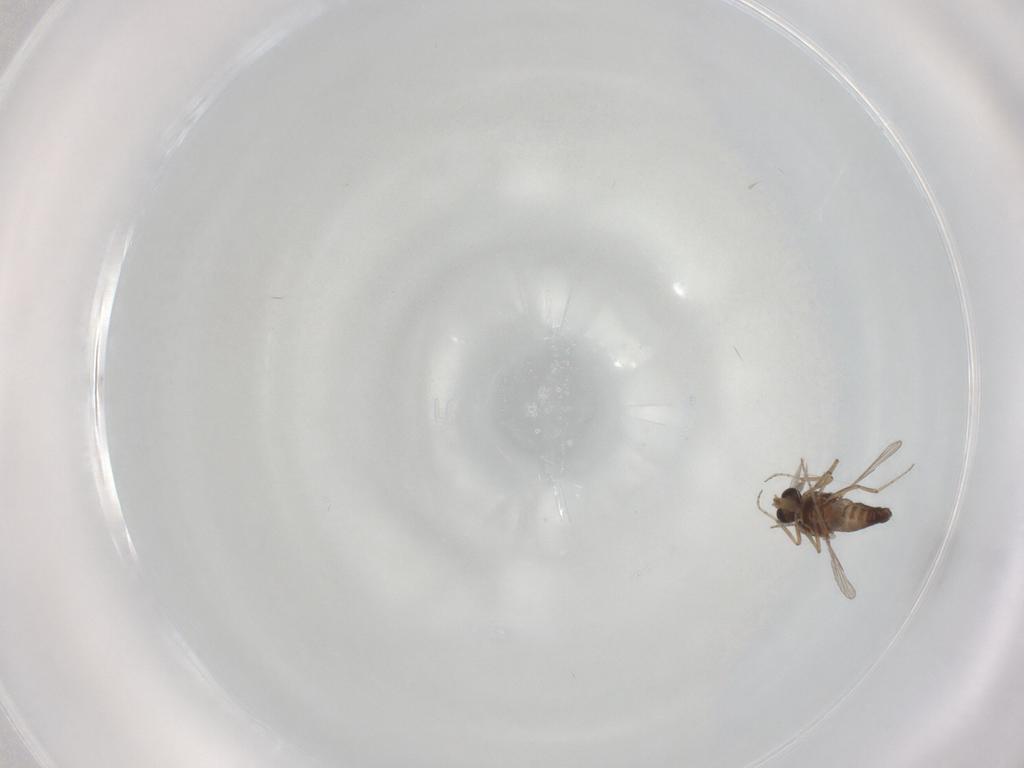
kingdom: Animalia
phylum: Arthropoda
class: Insecta
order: Diptera
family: Ceratopogonidae
